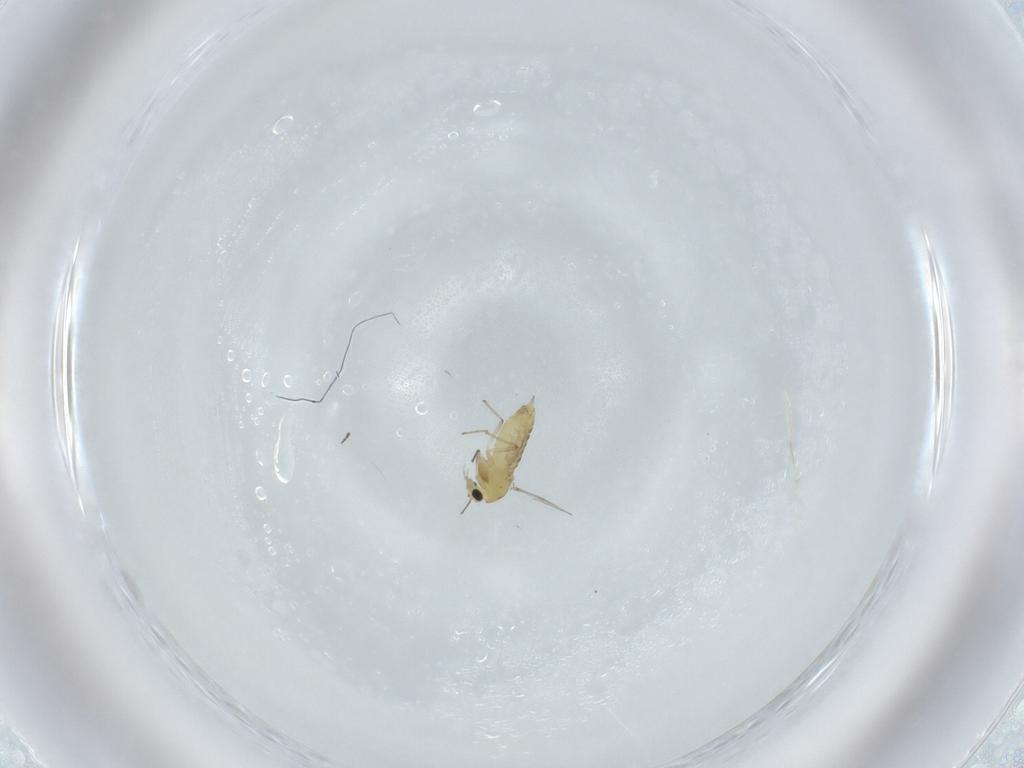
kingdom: Animalia
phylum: Arthropoda
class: Insecta
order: Diptera
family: Chironomidae
